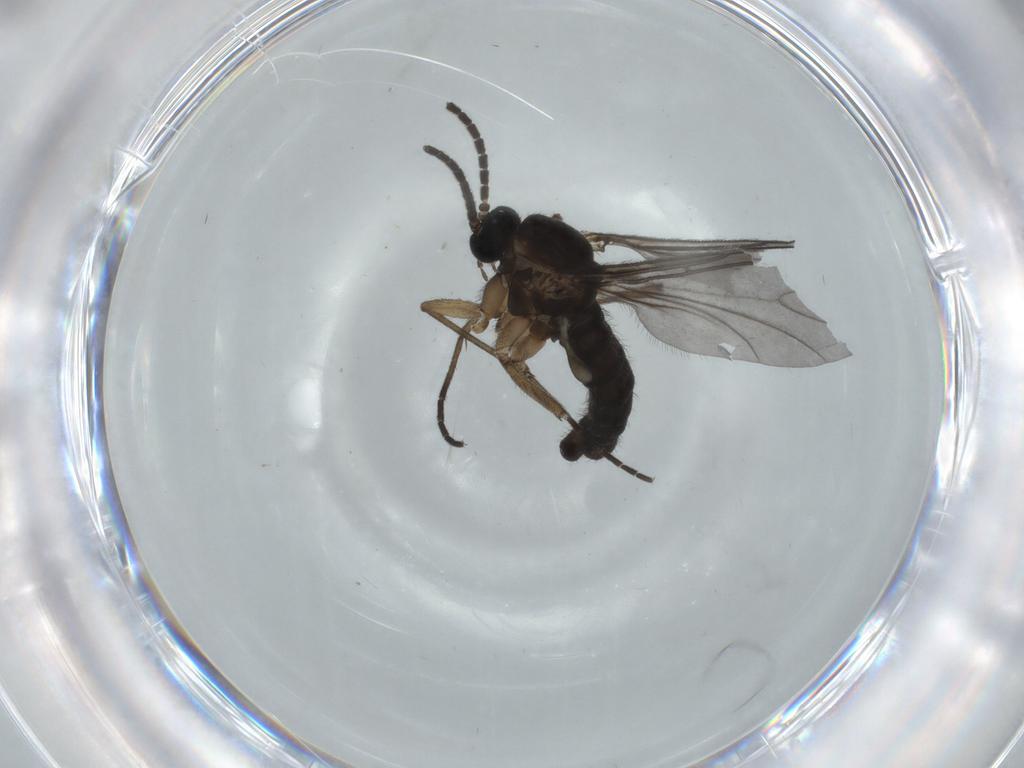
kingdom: Animalia
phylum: Arthropoda
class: Insecta
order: Diptera
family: Sciaridae
